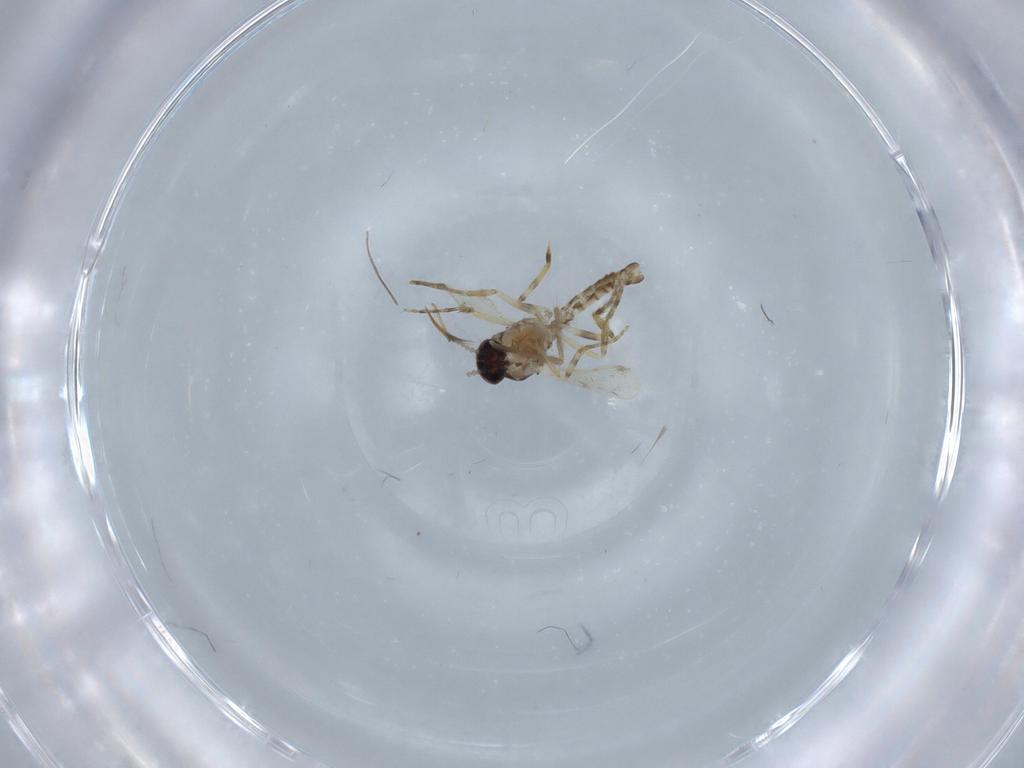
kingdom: Animalia
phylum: Arthropoda
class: Insecta
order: Diptera
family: Ceratopogonidae
